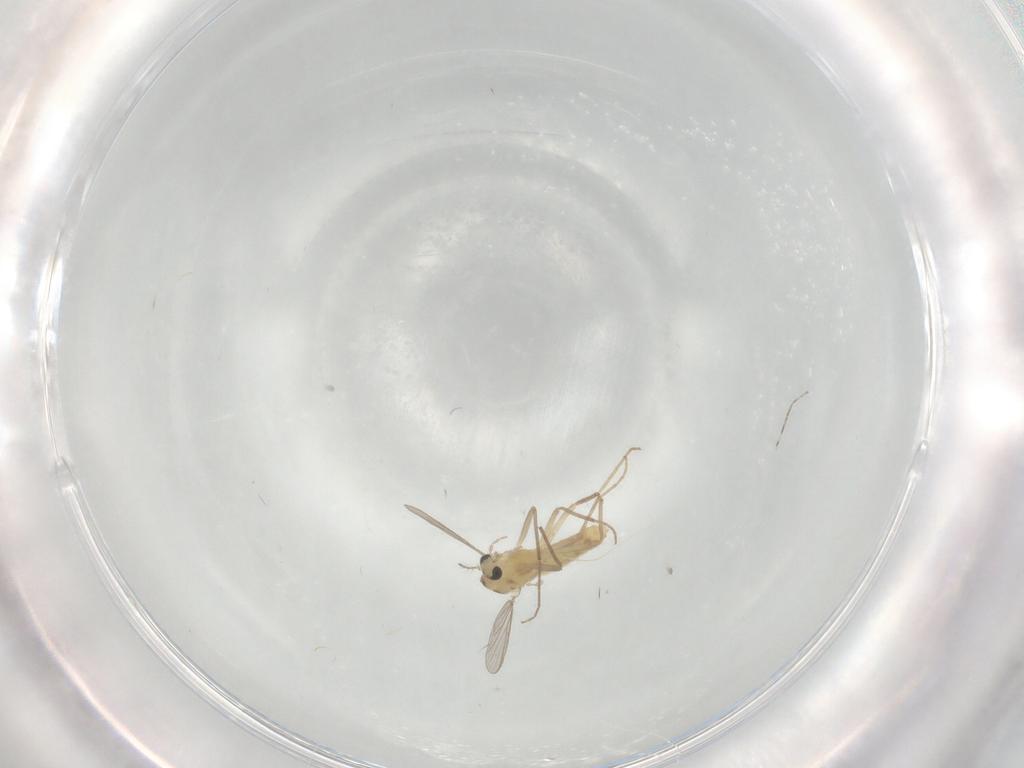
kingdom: Animalia
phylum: Arthropoda
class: Insecta
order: Diptera
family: Chironomidae
